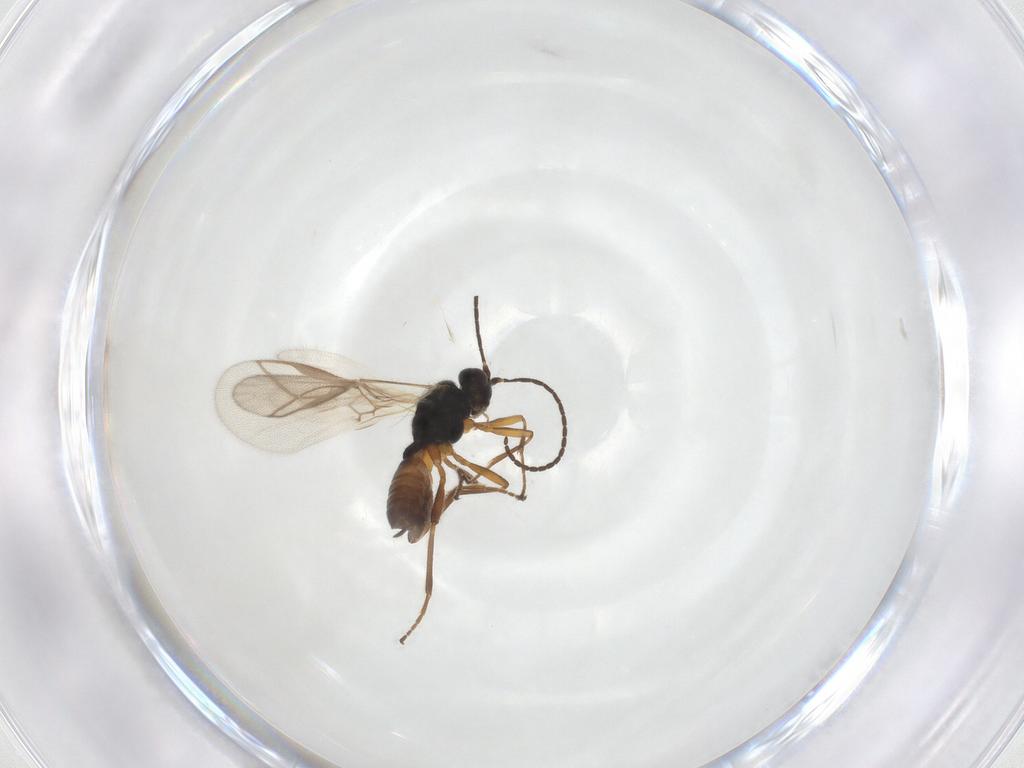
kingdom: Animalia
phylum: Arthropoda
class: Insecta
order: Hymenoptera
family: Braconidae
